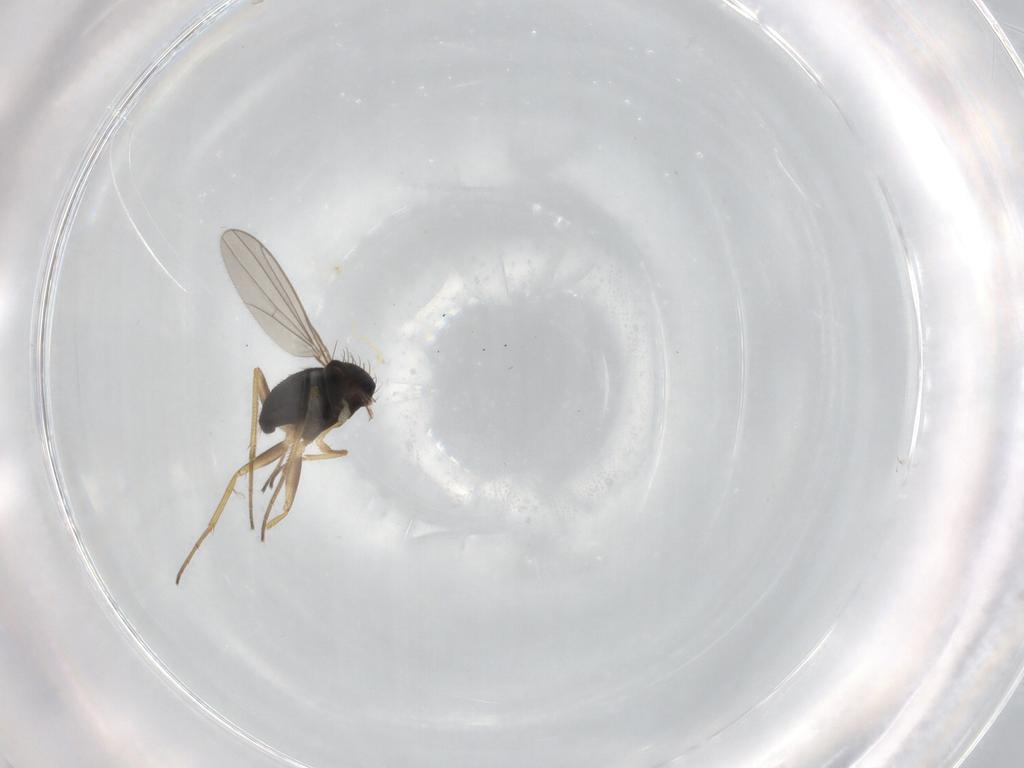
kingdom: Animalia
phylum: Arthropoda
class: Insecta
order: Diptera
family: Dolichopodidae
